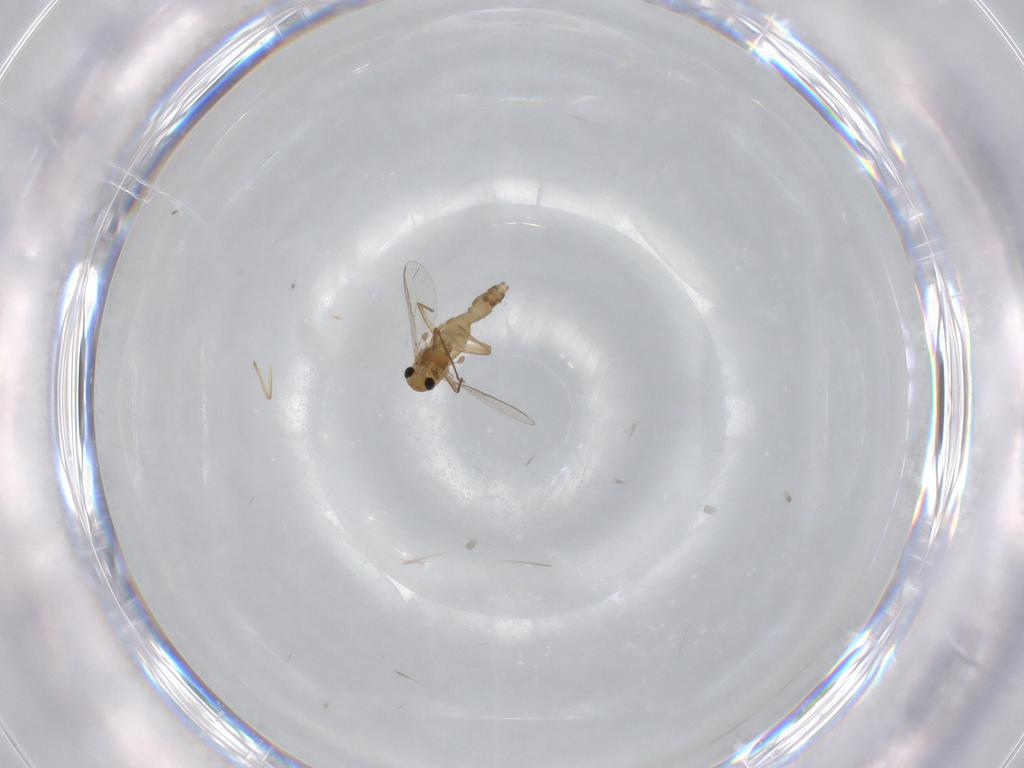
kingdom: Animalia
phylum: Arthropoda
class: Insecta
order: Diptera
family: Chironomidae
